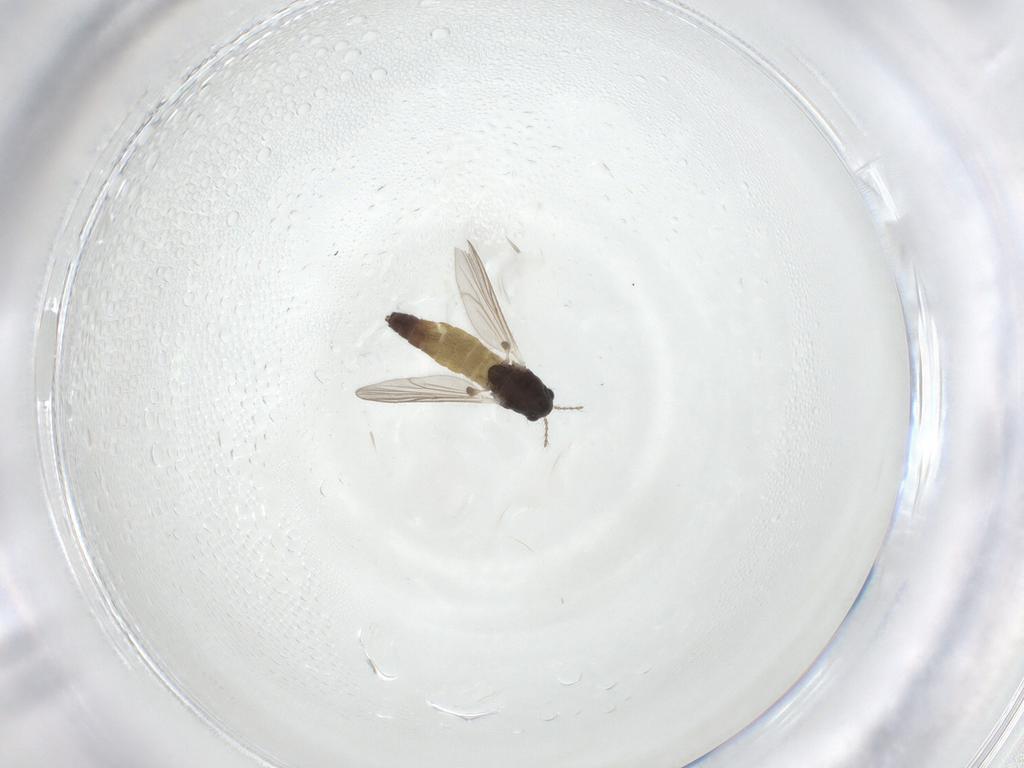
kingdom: Animalia
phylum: Arthropoda
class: Insecta
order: Diptera
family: Chironomidae
